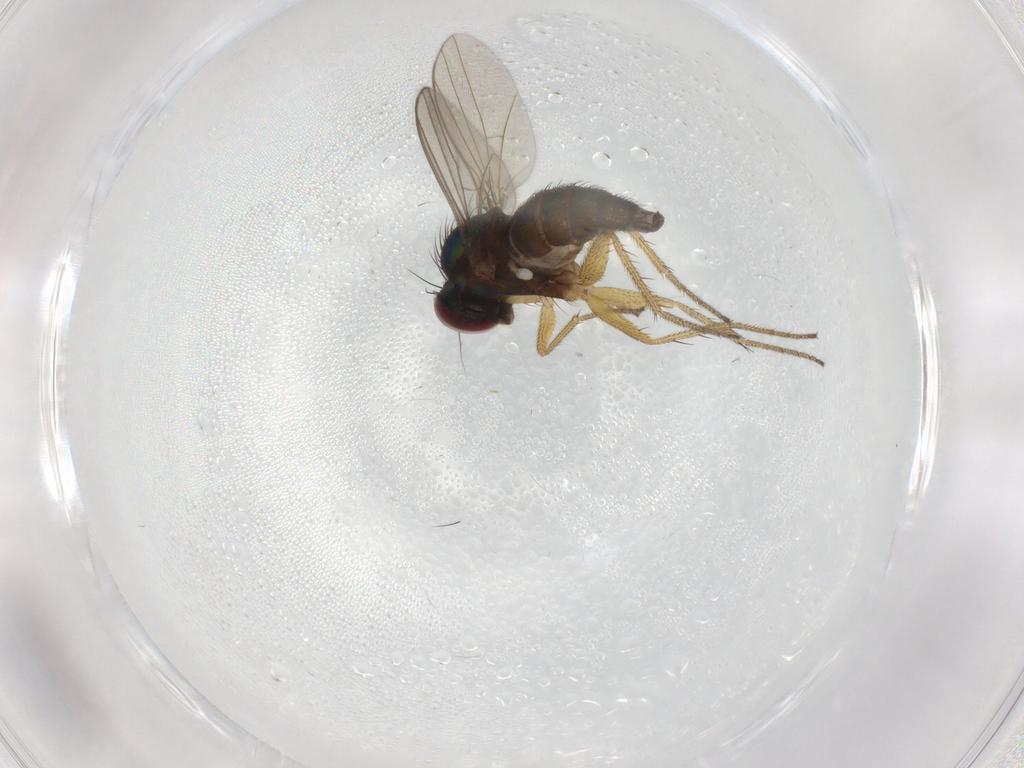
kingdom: Animalia
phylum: Arthropoda
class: Insecta
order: Diptera
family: Dolichopodidae
